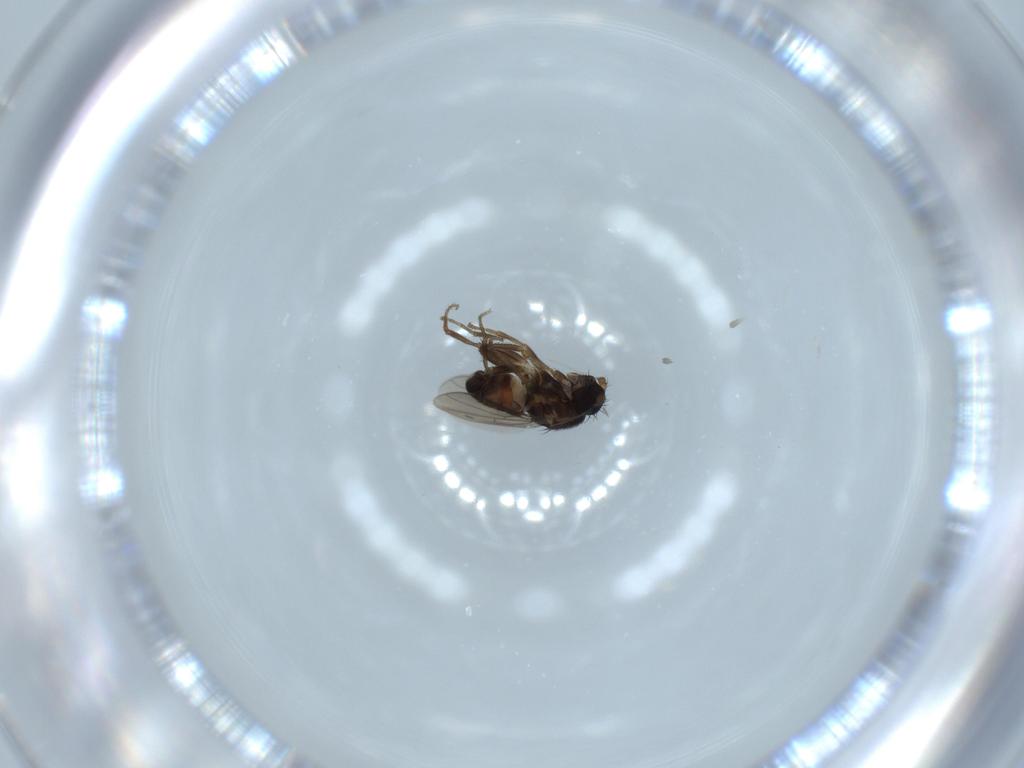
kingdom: Animalia
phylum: Arthropoda
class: Insecta
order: Diptera
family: Sphaeroceridae
